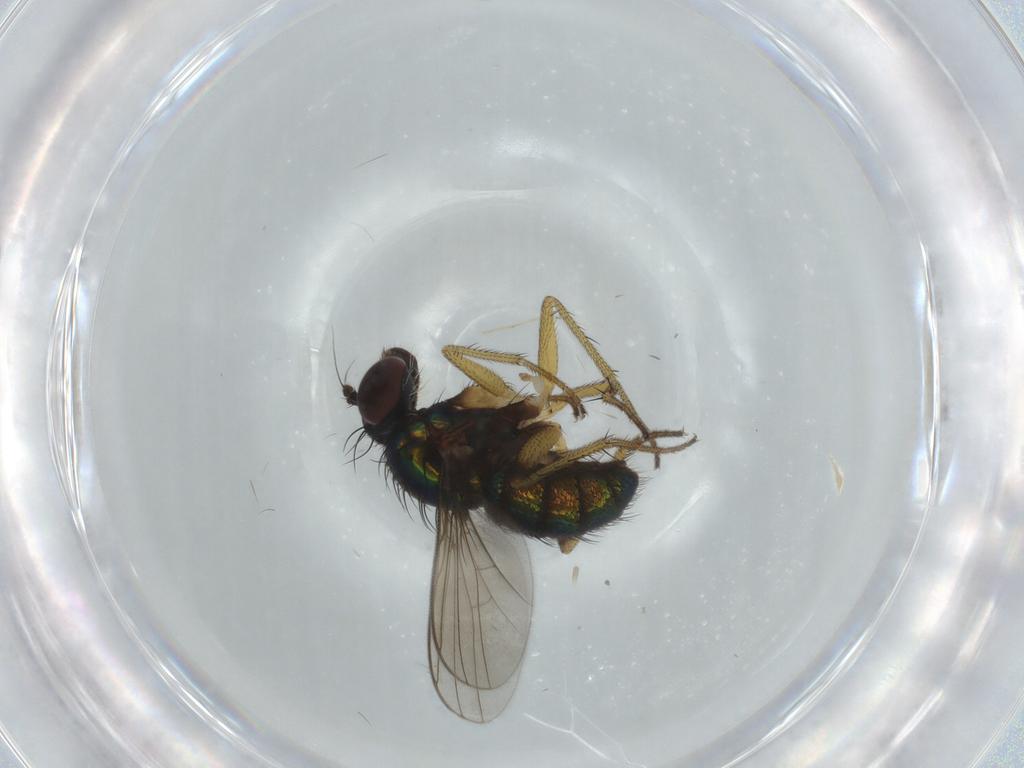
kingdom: Animalia
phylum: Arthropoda
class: Insecta
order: Diptera
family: Dolichopodidae
